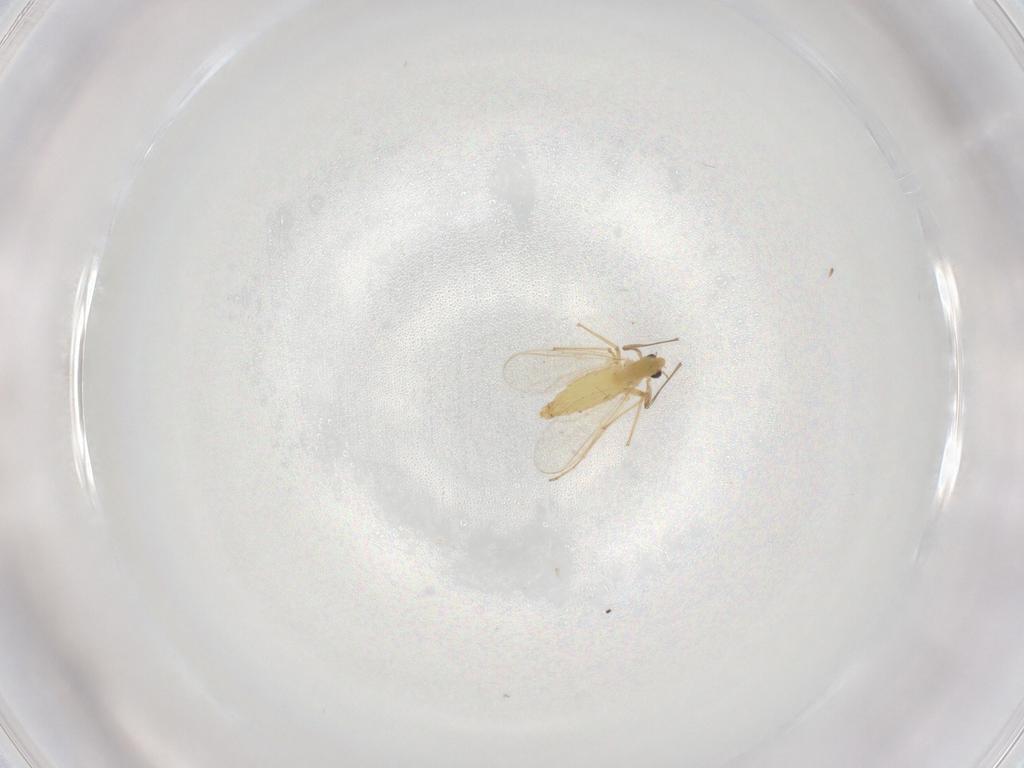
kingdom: Animalia
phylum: Arthropoda
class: Insecta
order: Diptera
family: Chironomidae
